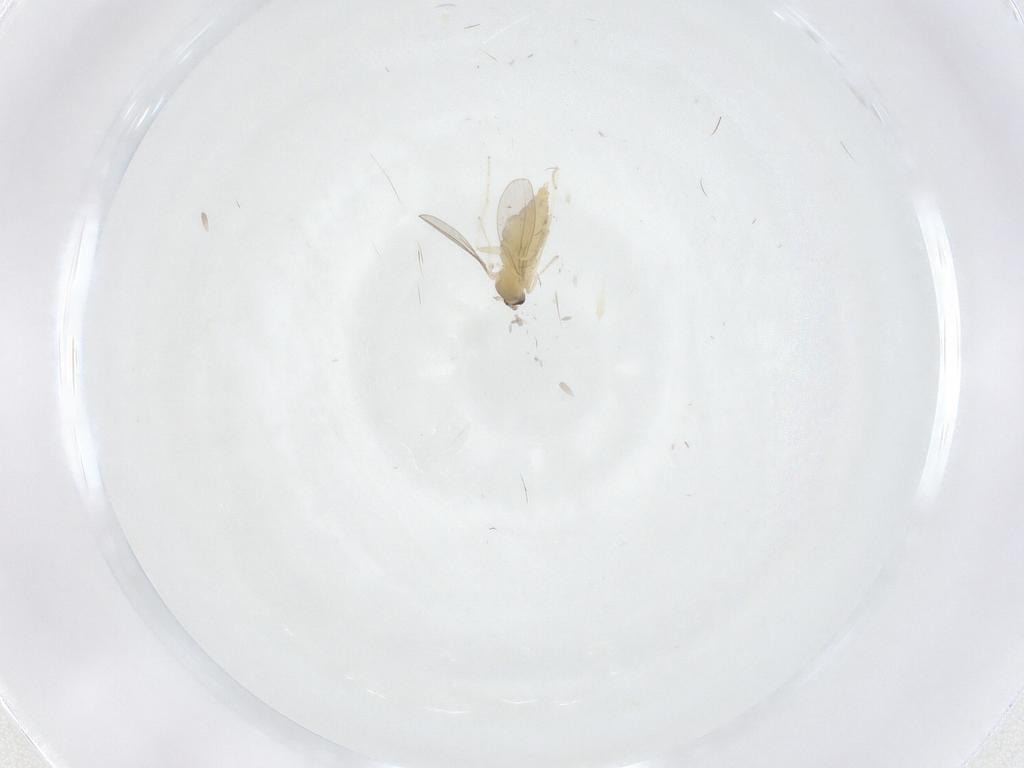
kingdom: Animalia
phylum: Arthropoda
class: Insecta
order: Diptera
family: Cecidomyiidae
